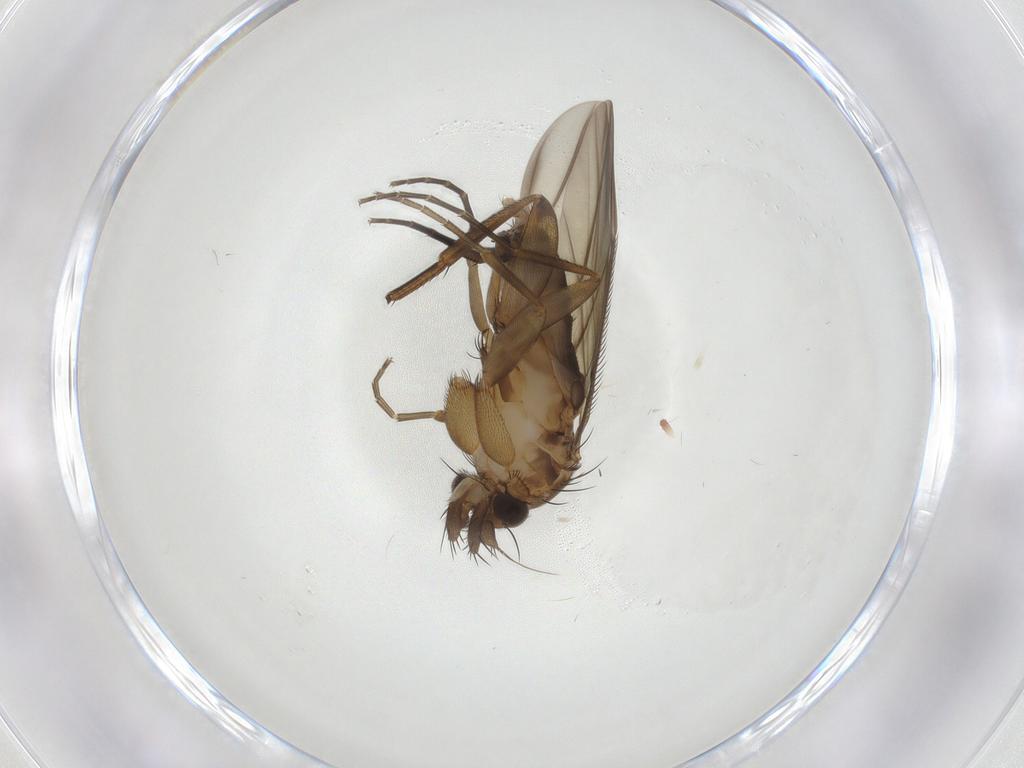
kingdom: Animalia
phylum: Arthropoda
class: Insecta
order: Diptera
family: Phoridae
